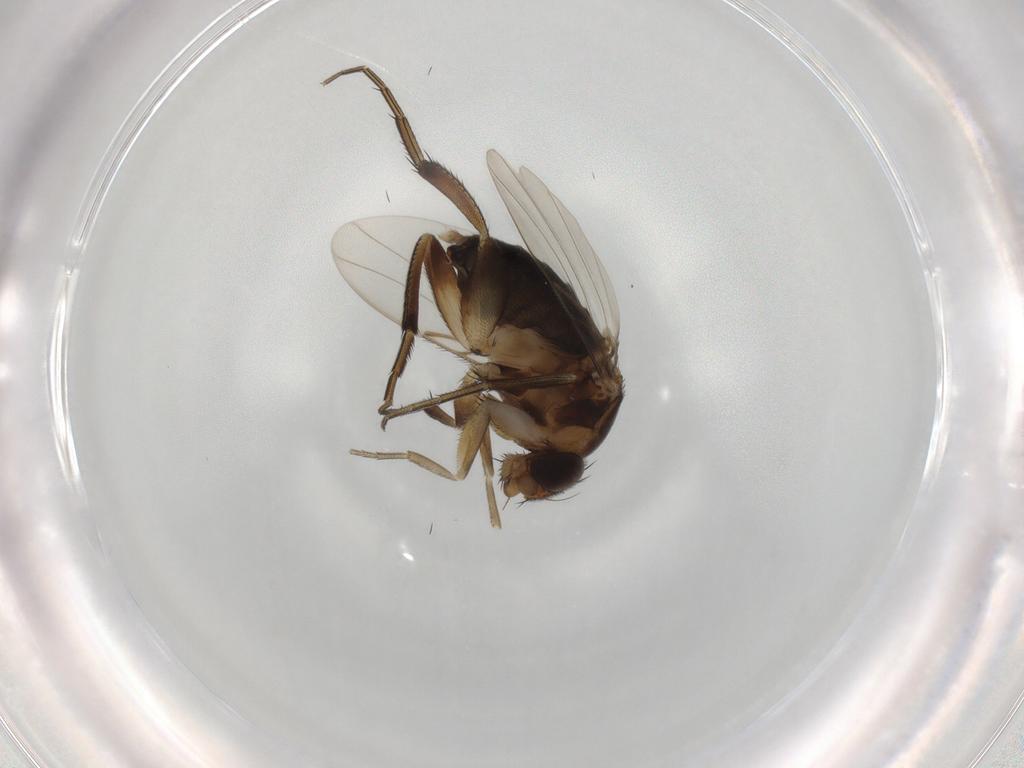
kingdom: Animalia
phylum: Arthropoda
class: Insecta
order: Diptera
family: Phoridae
